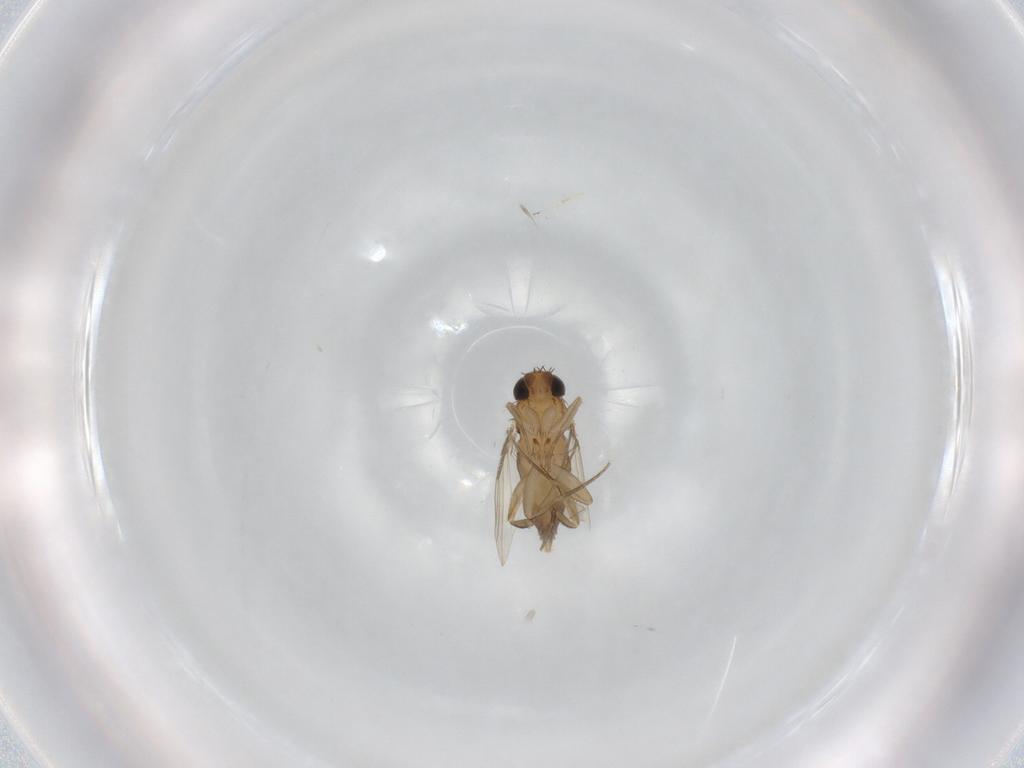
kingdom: Animalia
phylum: Arthropoda
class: Insecta
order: Diptera
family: Phoridae
